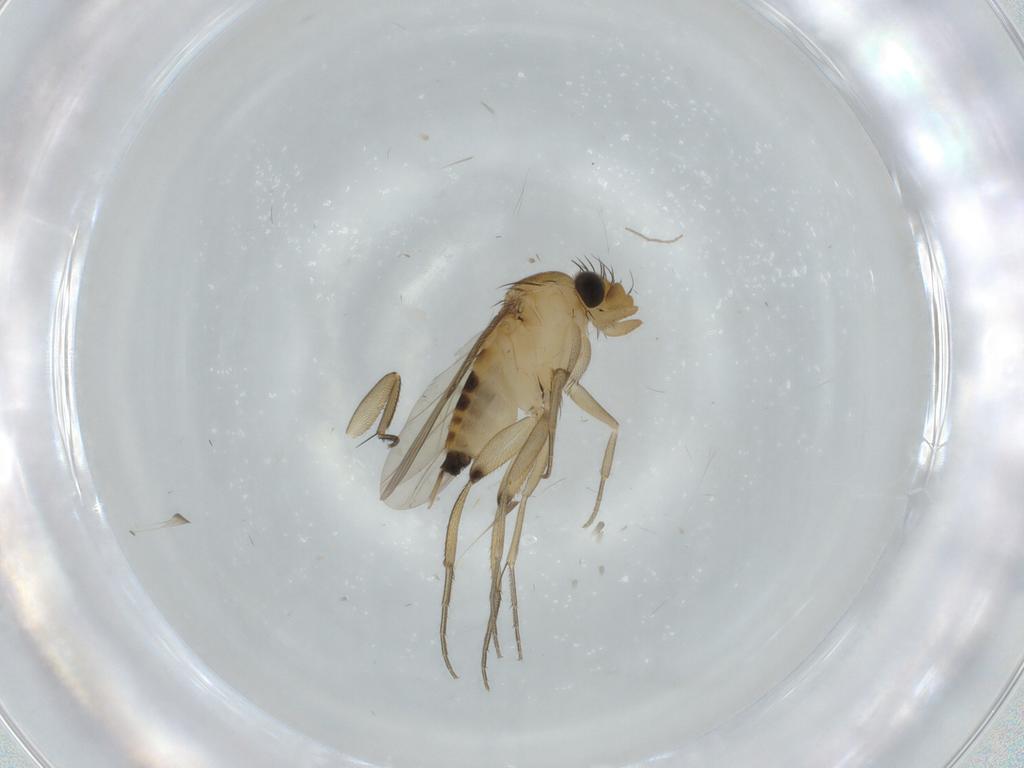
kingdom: Animalia
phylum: Arthropoda
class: Insecta
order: Diptera
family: Phoridae
